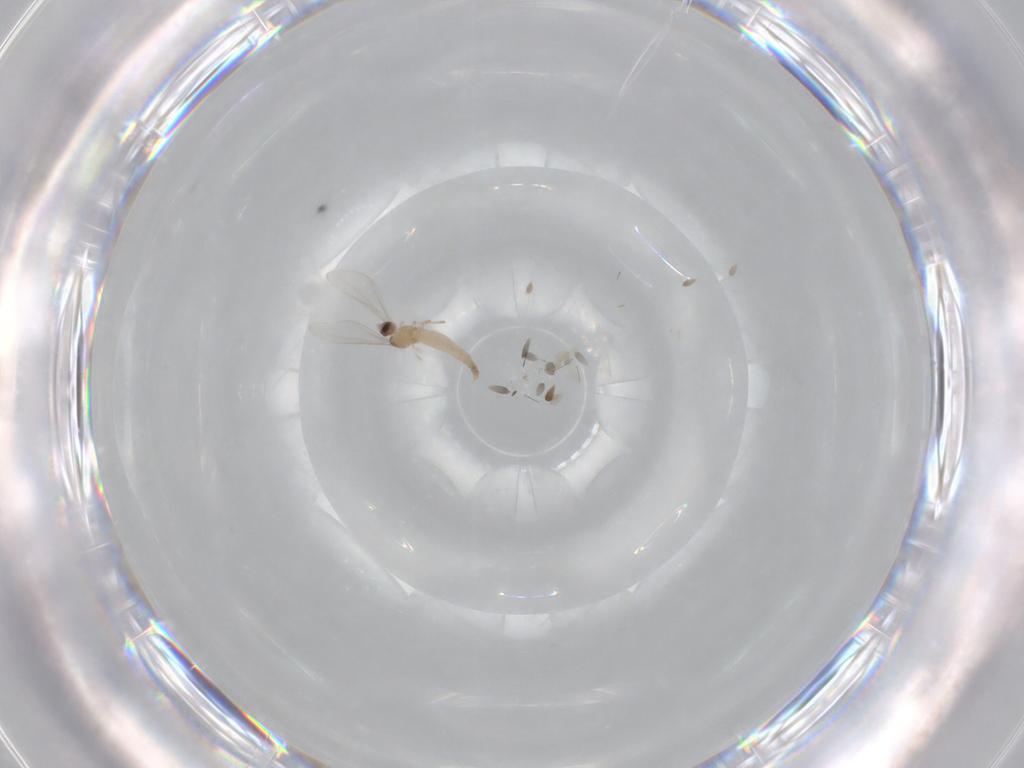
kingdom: Animalia
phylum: Arthropoda
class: Insecta
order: Diptera
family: Cecidomyiidae
